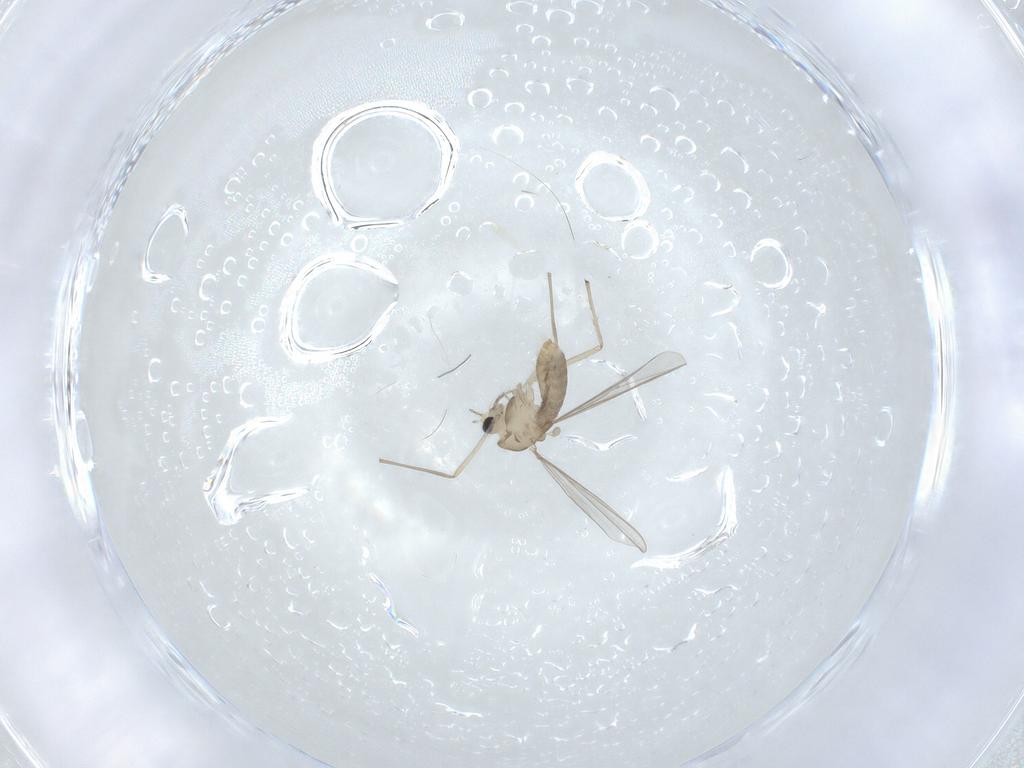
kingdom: Animalia
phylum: Arthropoda
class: Insecta
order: Diptera
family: Chironomidae
